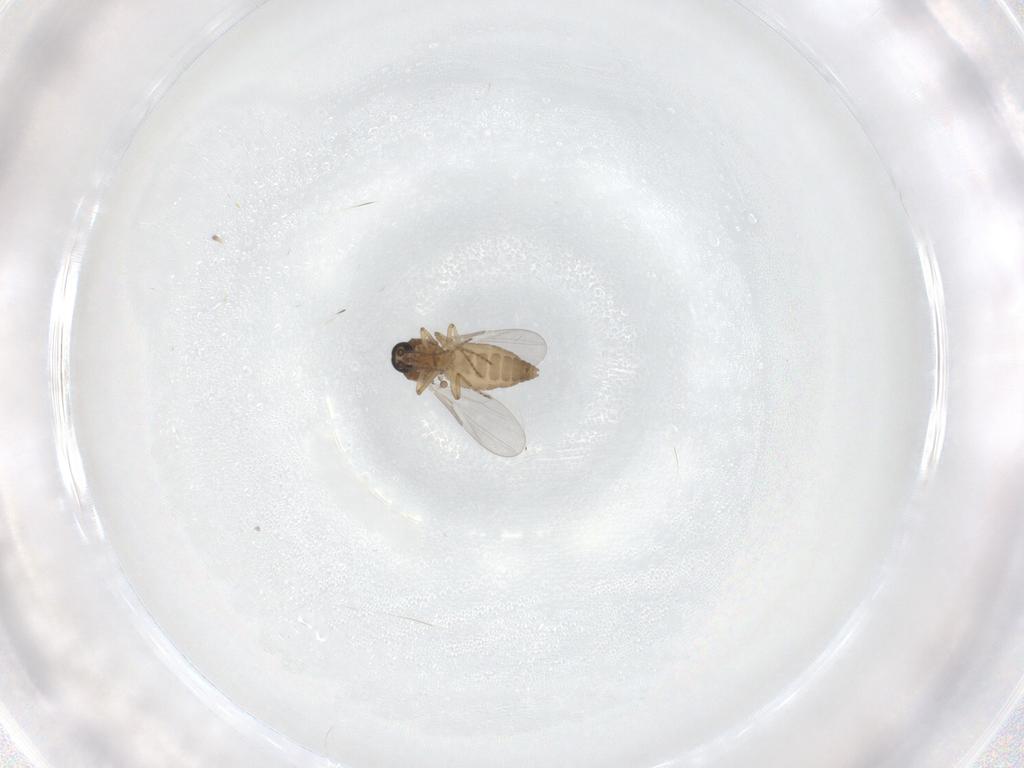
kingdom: Animalia
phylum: Arthropoda
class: Insecta
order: Diptera
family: Ceratopogonidae
